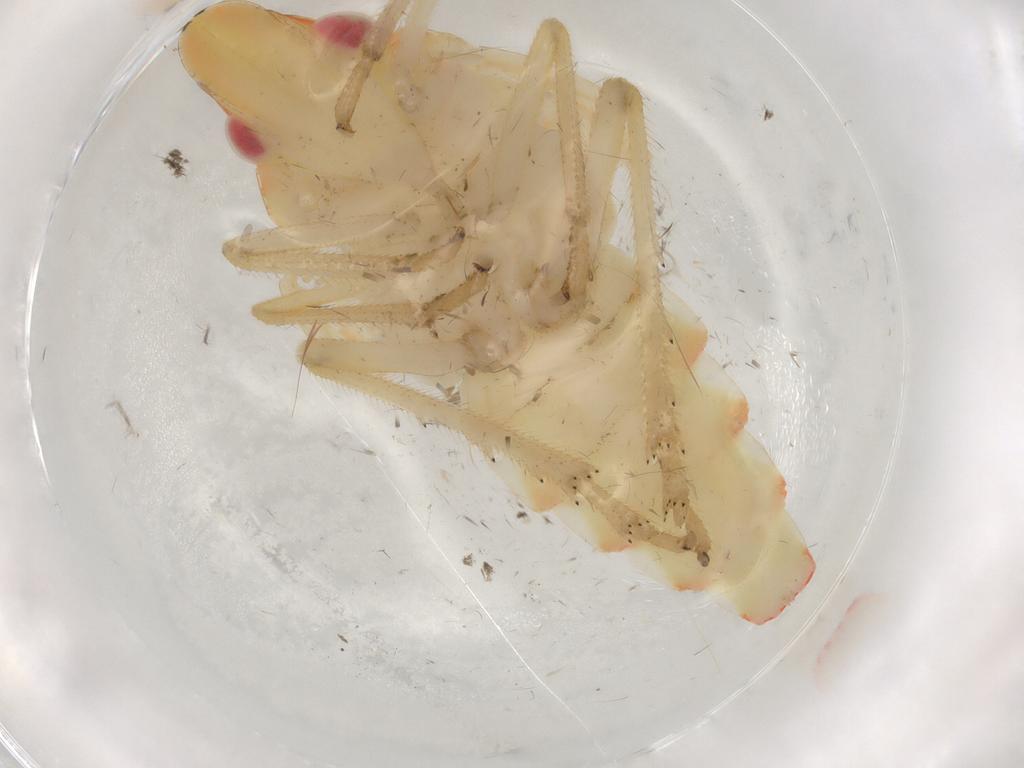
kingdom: Animalia
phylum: Arthropoda
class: Insecta
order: Hemiptera
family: Tropiduchidae
